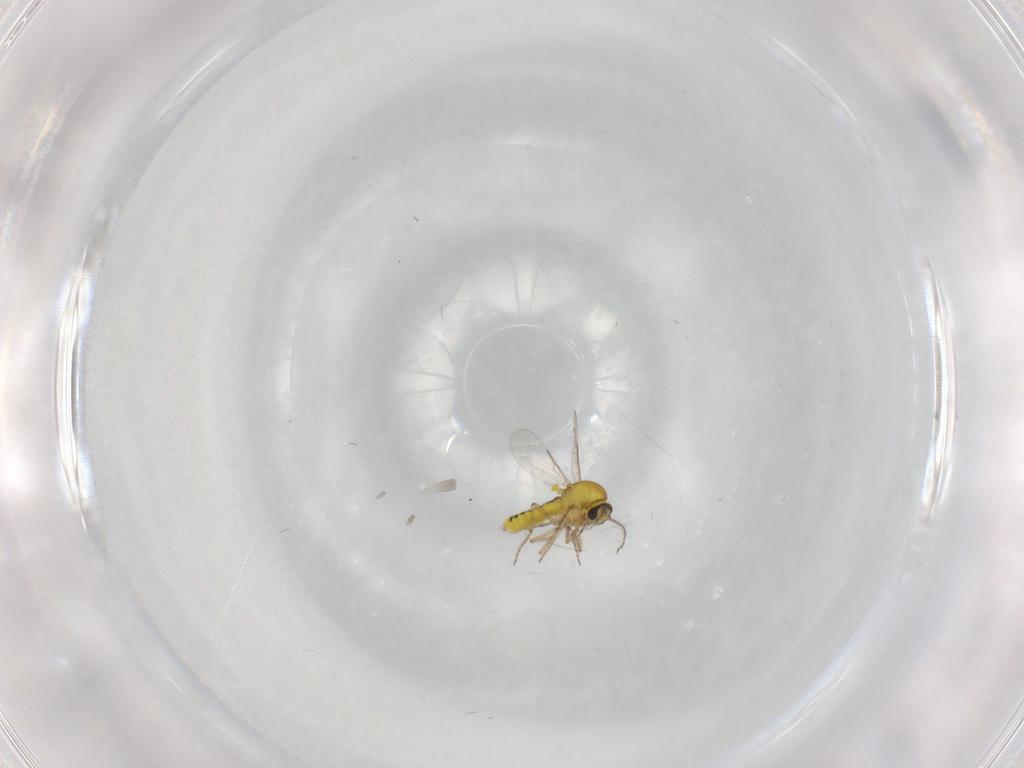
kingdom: Animalia
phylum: Arthropoda
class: Insecta
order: Diptera
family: Ceratopogonidae
